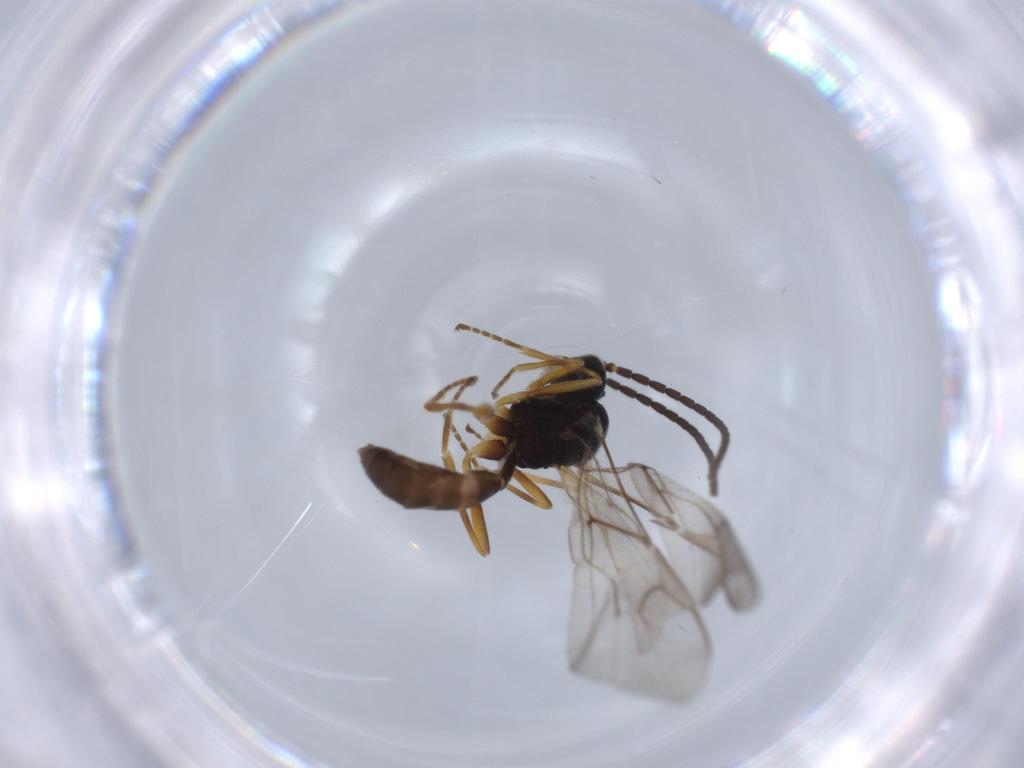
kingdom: Animalia
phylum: Arthropoda
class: Insecta
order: Hymenoptera
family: Braconidae
